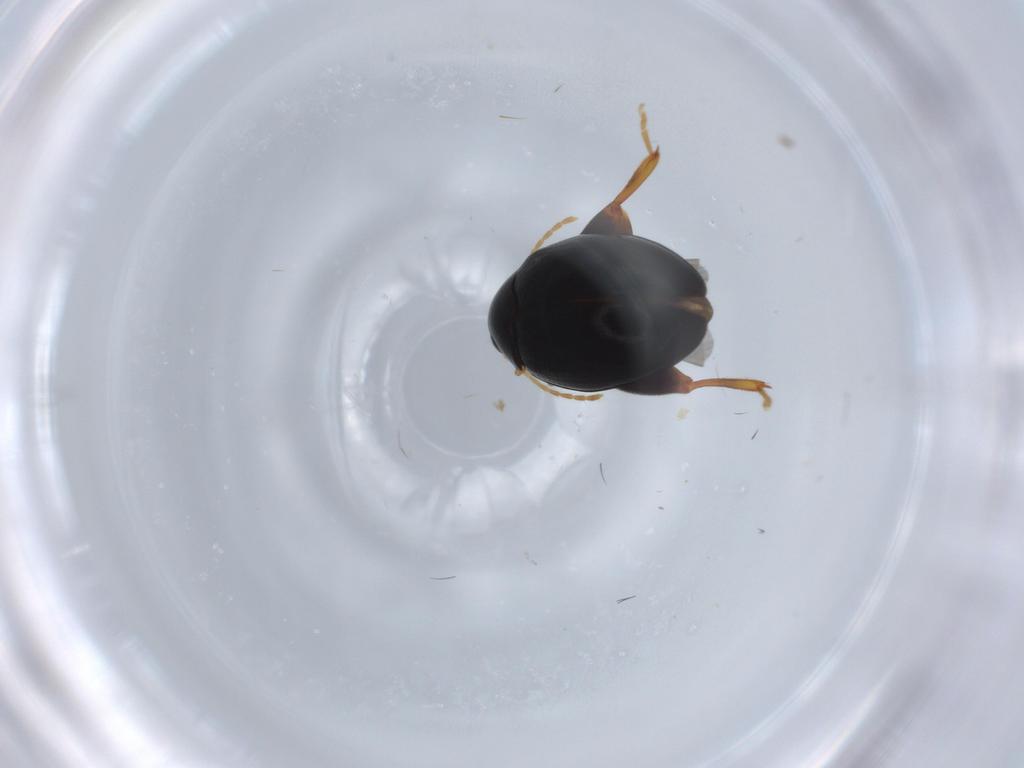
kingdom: Animalia
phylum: Arthropoda
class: Insecta
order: Coleoptera
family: Chrysomelidae
